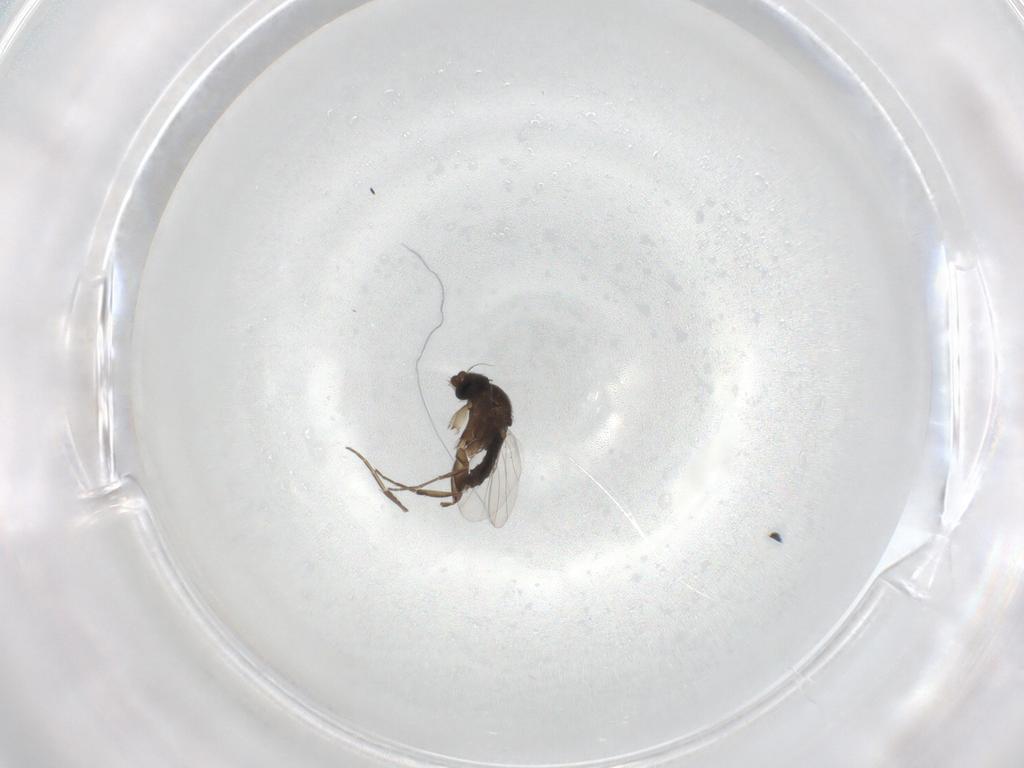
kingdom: Animalia
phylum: Arthropoda
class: Insecta
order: Diptera
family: Phoridae
